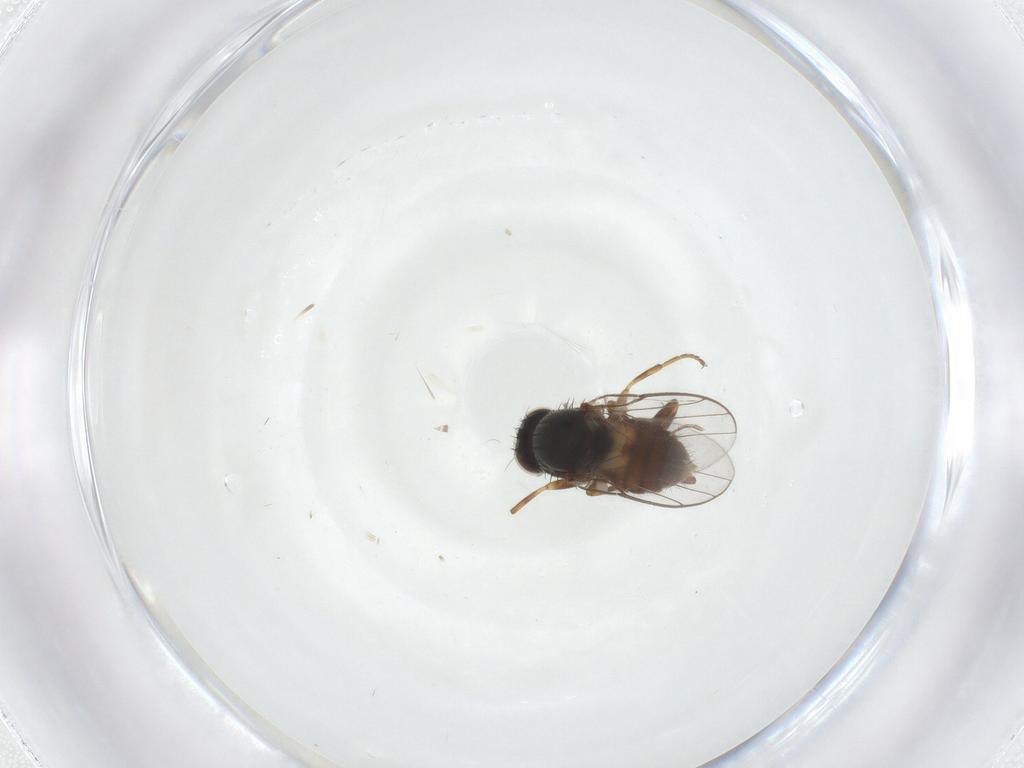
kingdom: Animalia
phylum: Arthropoda
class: Insecta
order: Diptera
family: Chloropidae
